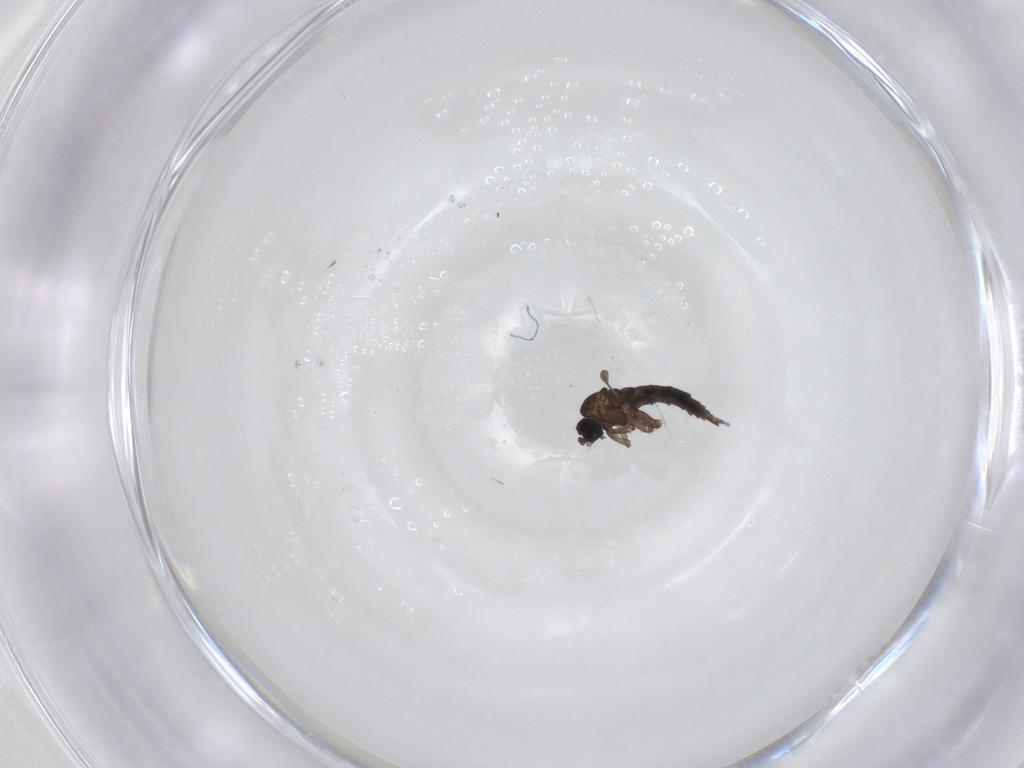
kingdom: Animalia
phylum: Arthropoda
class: Insecta
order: Diptera
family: Sciaridae
